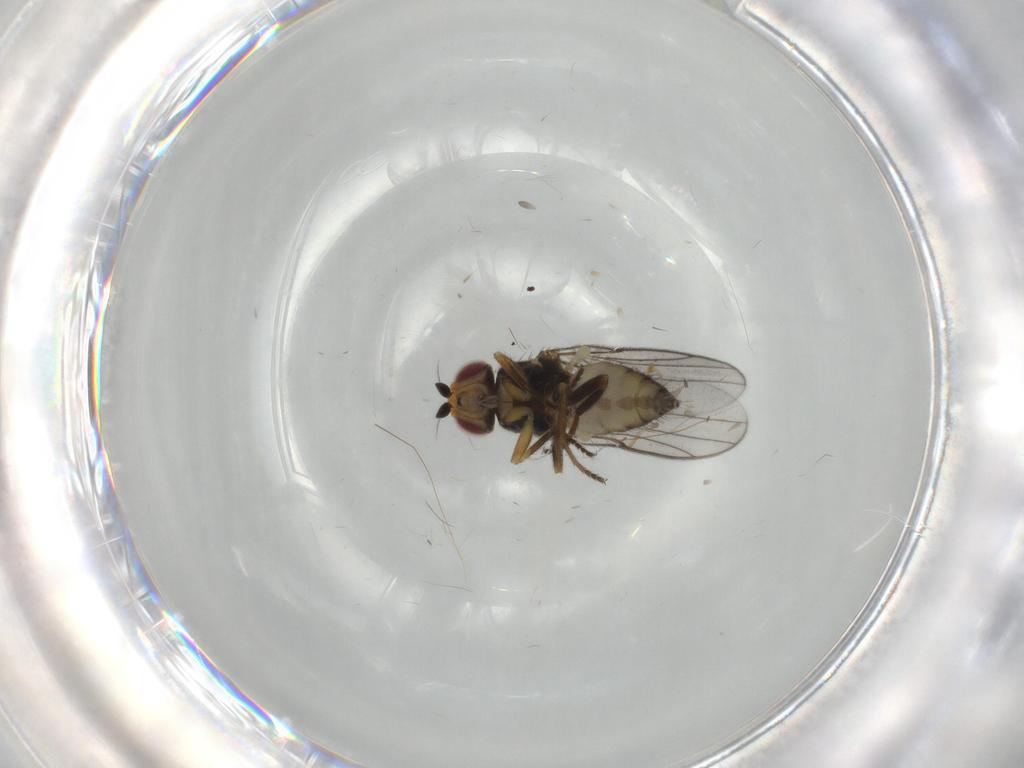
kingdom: Animalia
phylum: Arthropoda
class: Insecta
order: Diptera
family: Chloropidae
